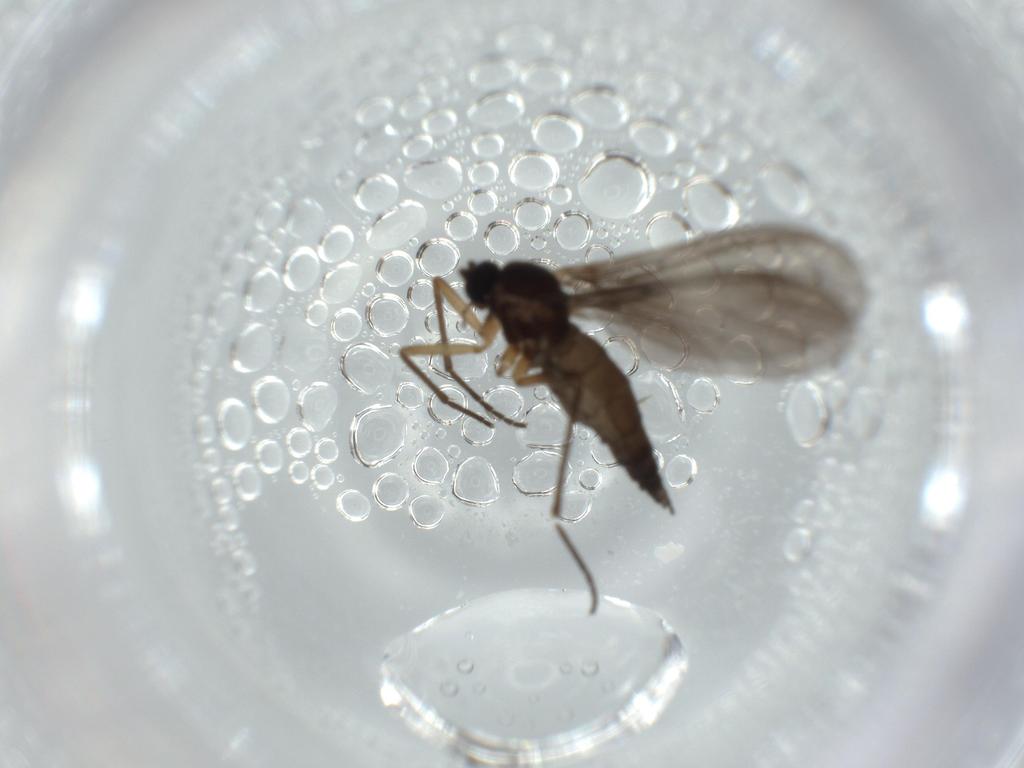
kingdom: Animalia
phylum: Arthropoda
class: Insecta
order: Diptera
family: Sciaridae
